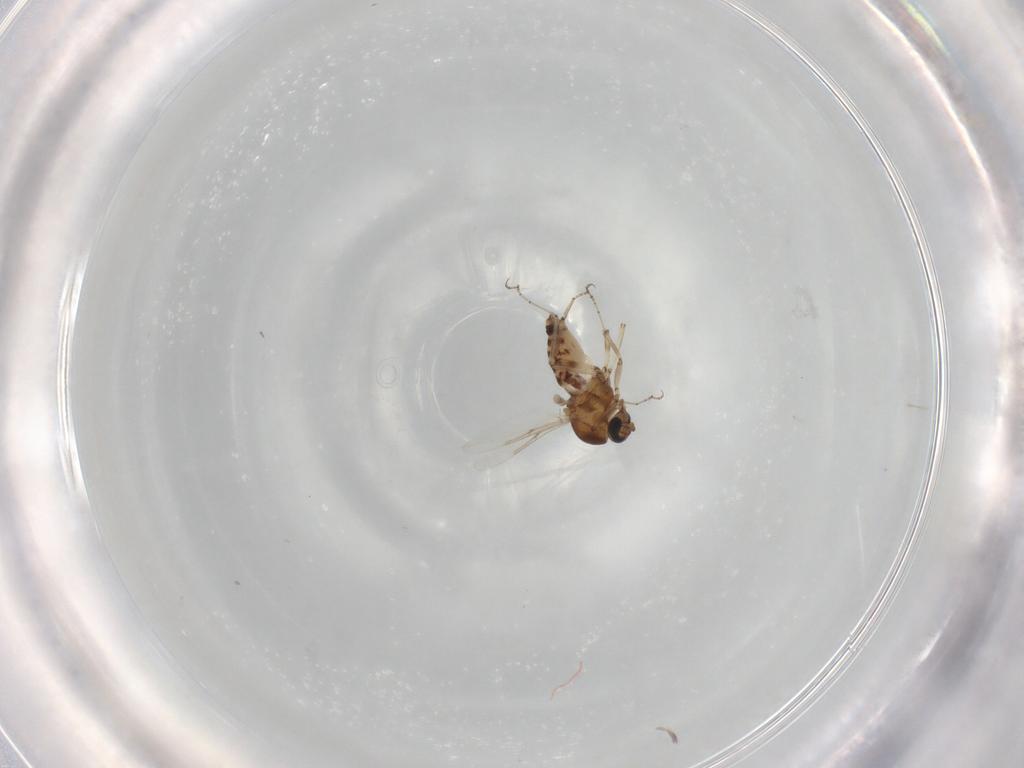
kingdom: Animalia
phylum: Arthropoda
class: Insecta
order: Diptera
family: Ceratopogonidae
